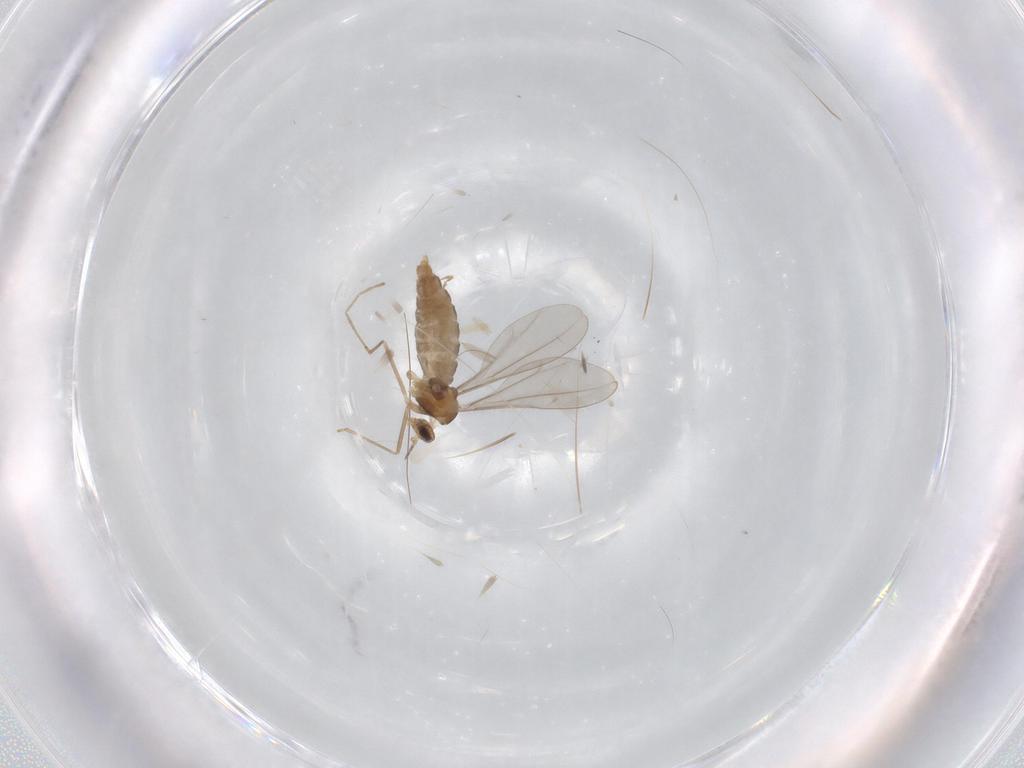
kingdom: Animalia
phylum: Arthropoda
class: Insecta
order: Diptera
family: Cecidomyiidae
